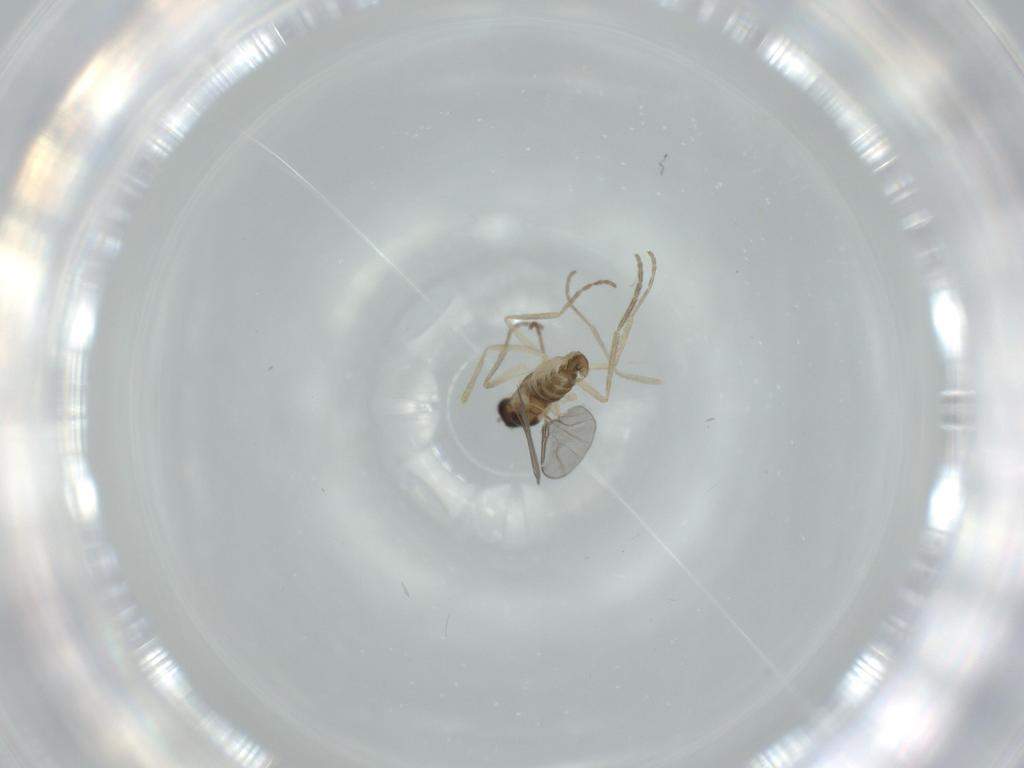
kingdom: Animalia
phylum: Arthropoda
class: Insecta
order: Diptera
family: Cecidomyiidae
